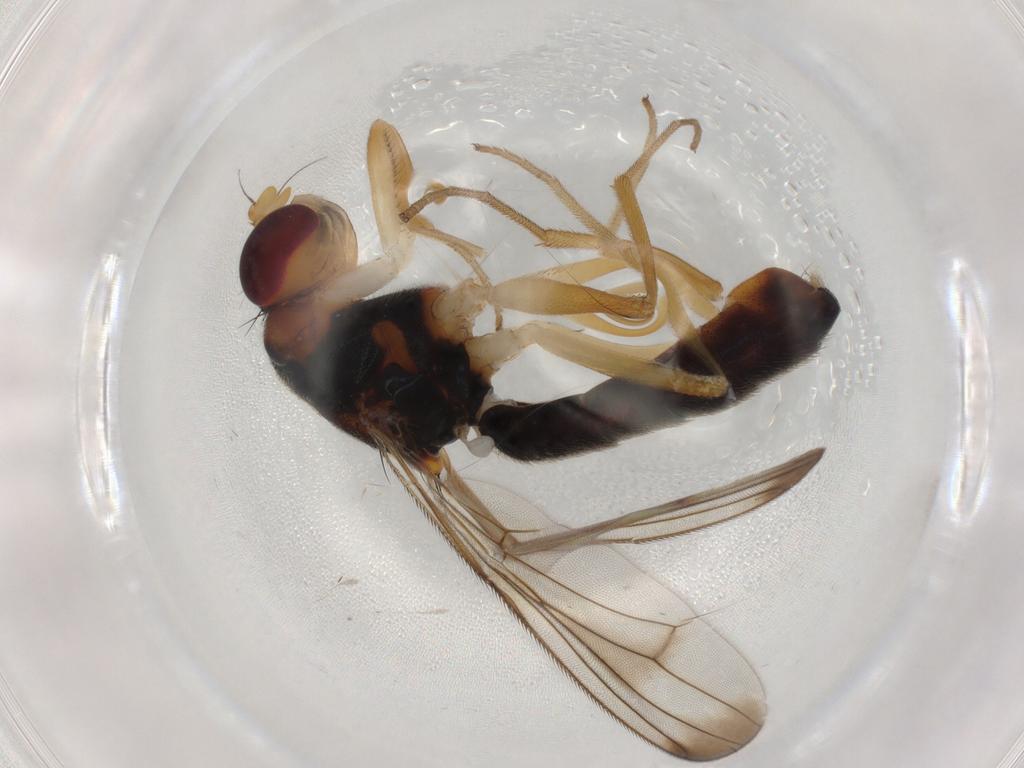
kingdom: Animalia
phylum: Arthropoda
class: Insecta
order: Diptera
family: Psilidae
